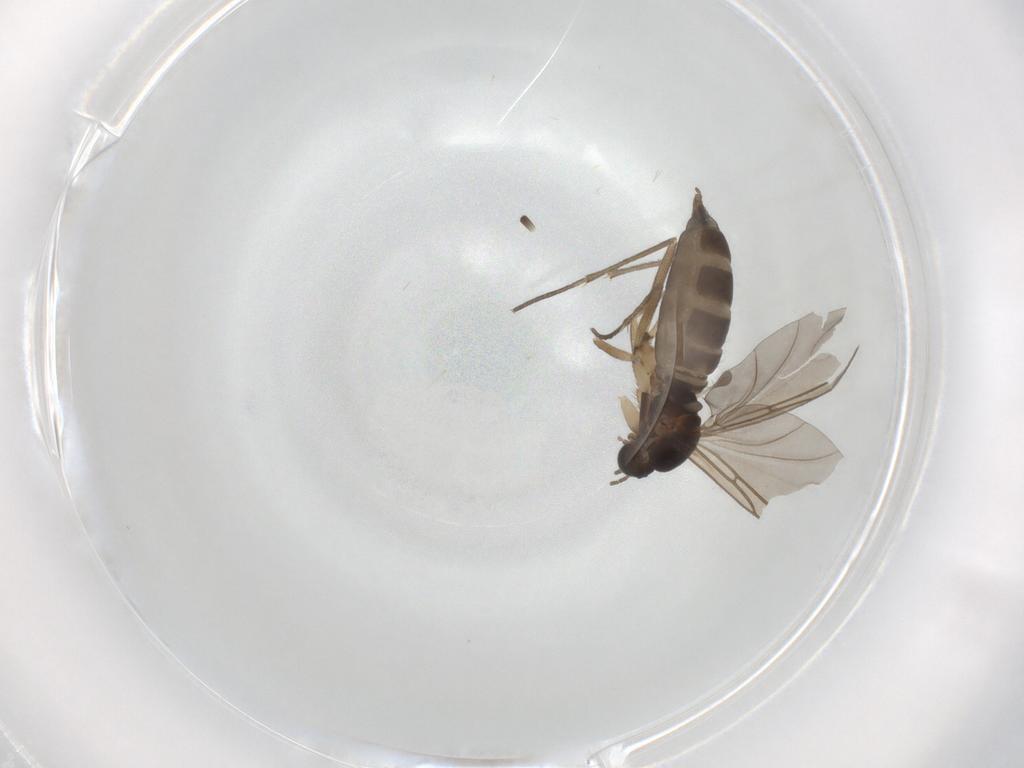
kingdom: Animalia
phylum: Arthropoda
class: Insecta
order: Diptera
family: Sciaridae
